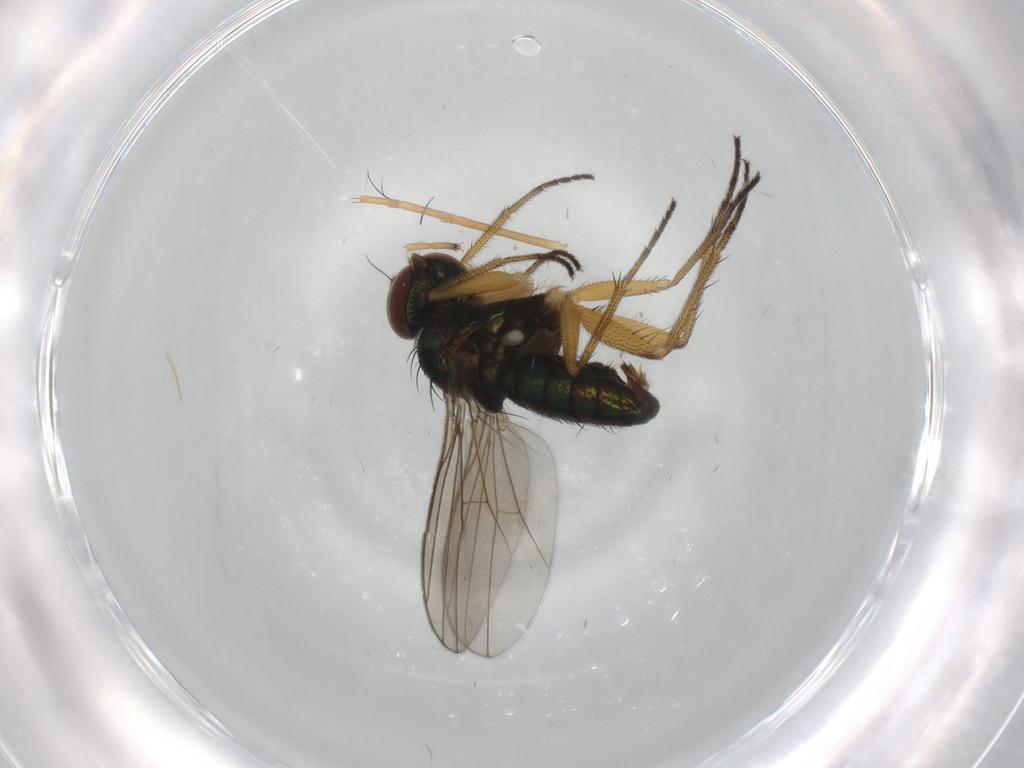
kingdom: Animalia
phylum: Arthropoda
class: Insecta
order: Diptera
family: Dolichopodidae
